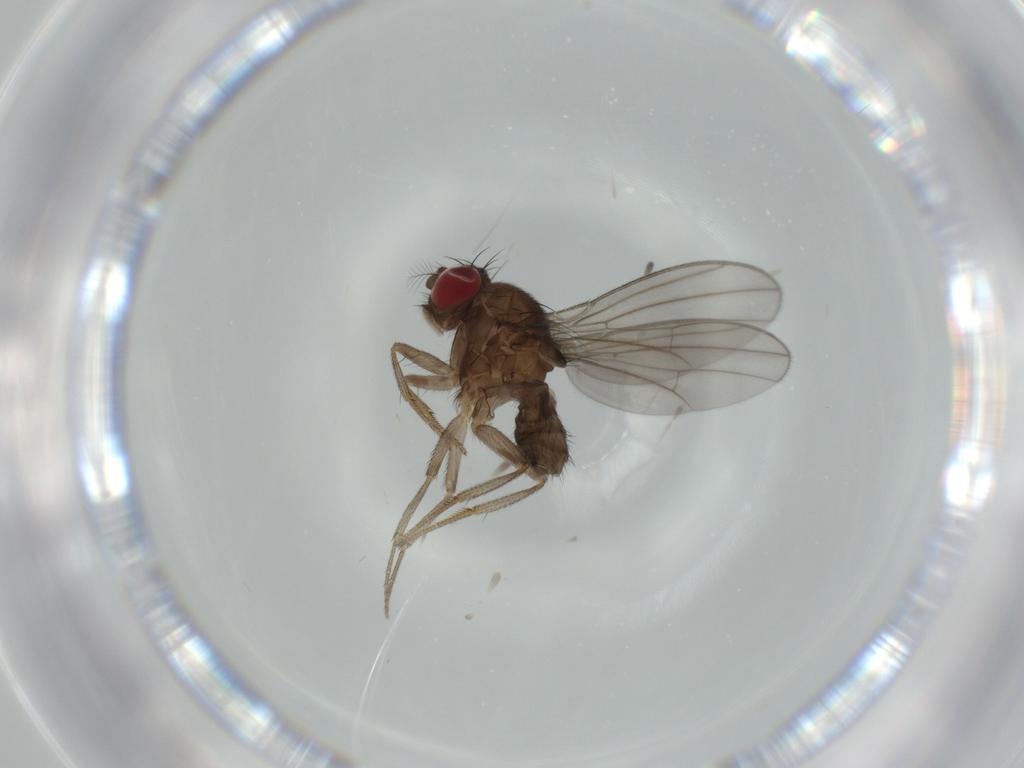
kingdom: Animalia
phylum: Arthropoda
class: Insecta
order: Diptera
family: Drosophilidae
